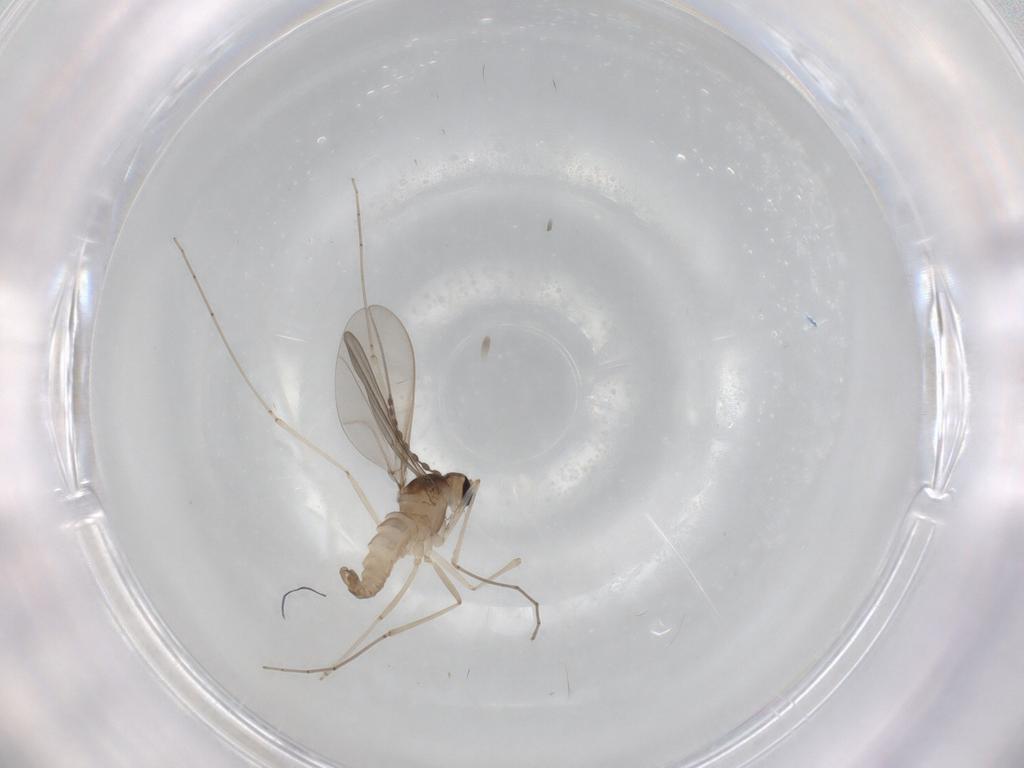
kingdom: Animalia
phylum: Arthropoda
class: Insecta
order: Diptera
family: Cecidomyiidae
